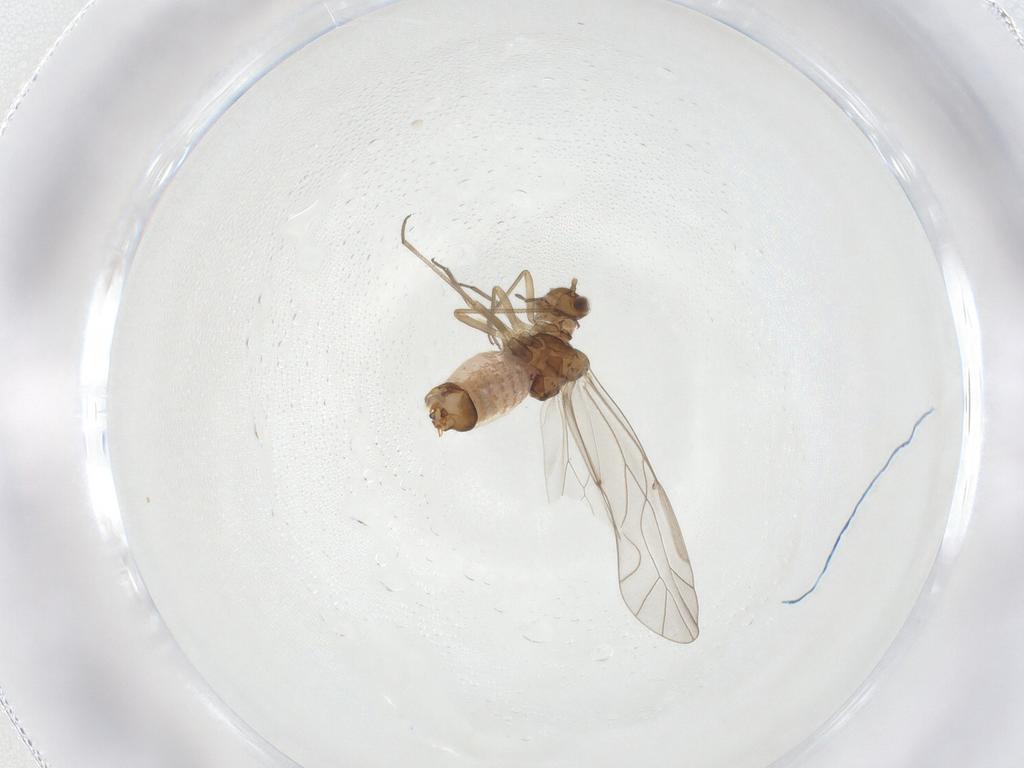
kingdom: Animalia
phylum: Arthropoda
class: Insecta
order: Psocodea
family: Lachesillidae
